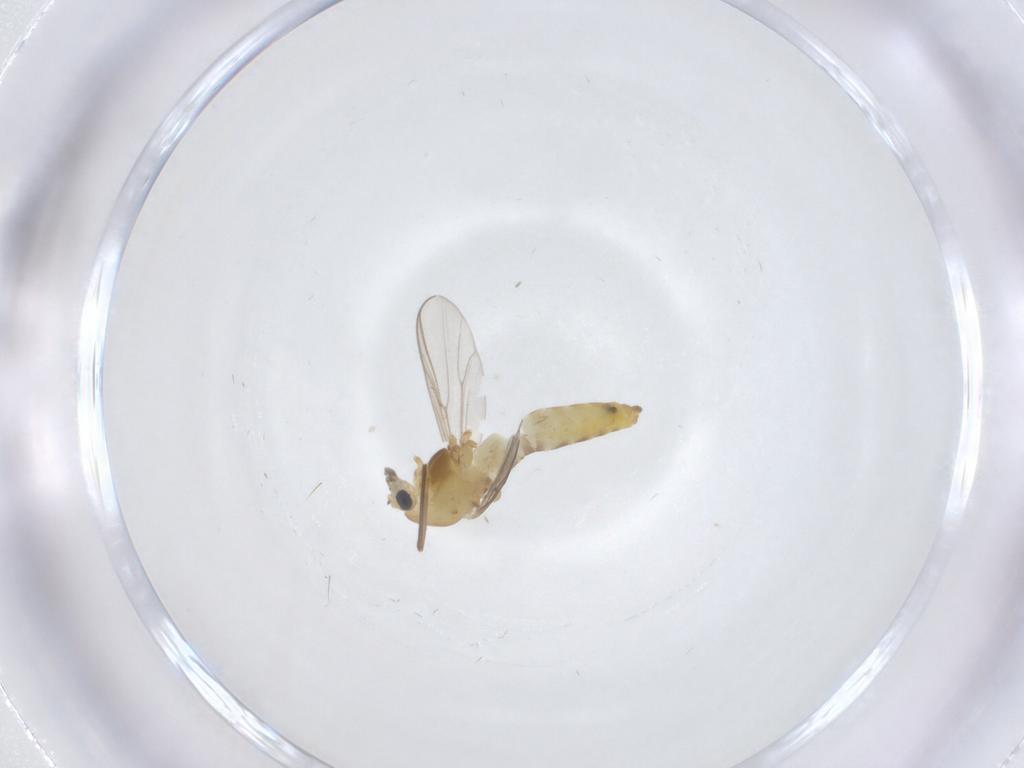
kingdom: Animalia
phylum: Arthropoda
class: Insecta
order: Diptera
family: Chironomidae
